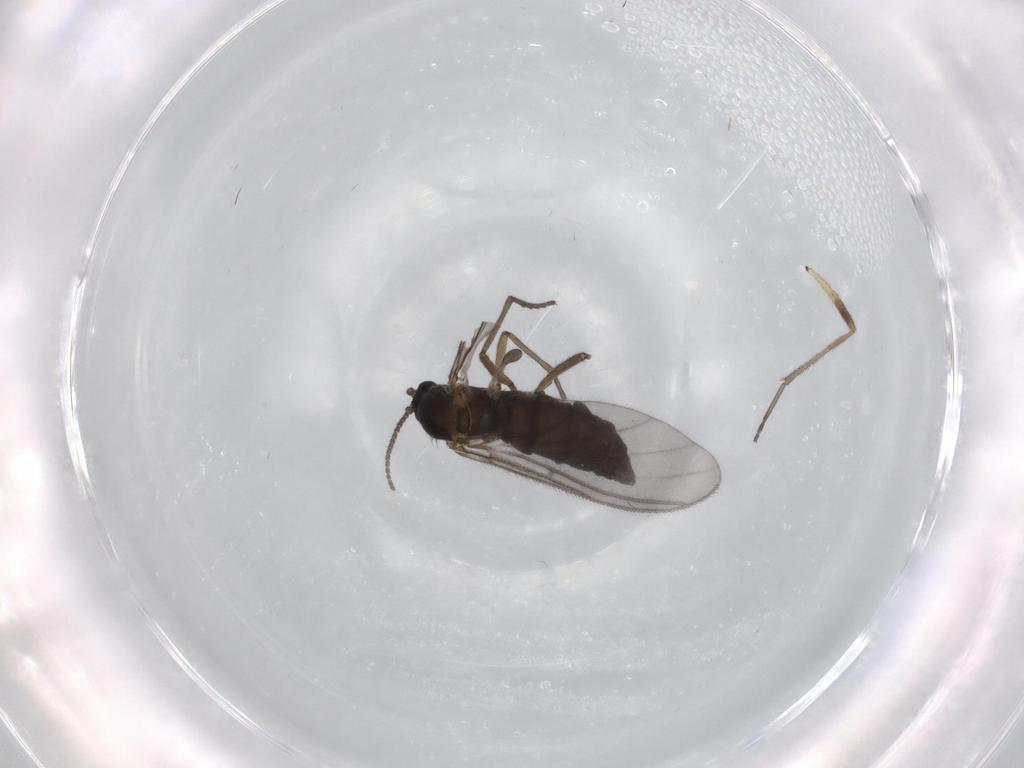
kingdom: Animalia
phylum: Arthropoda
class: Insecta
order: Diptera
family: Sciaridae
